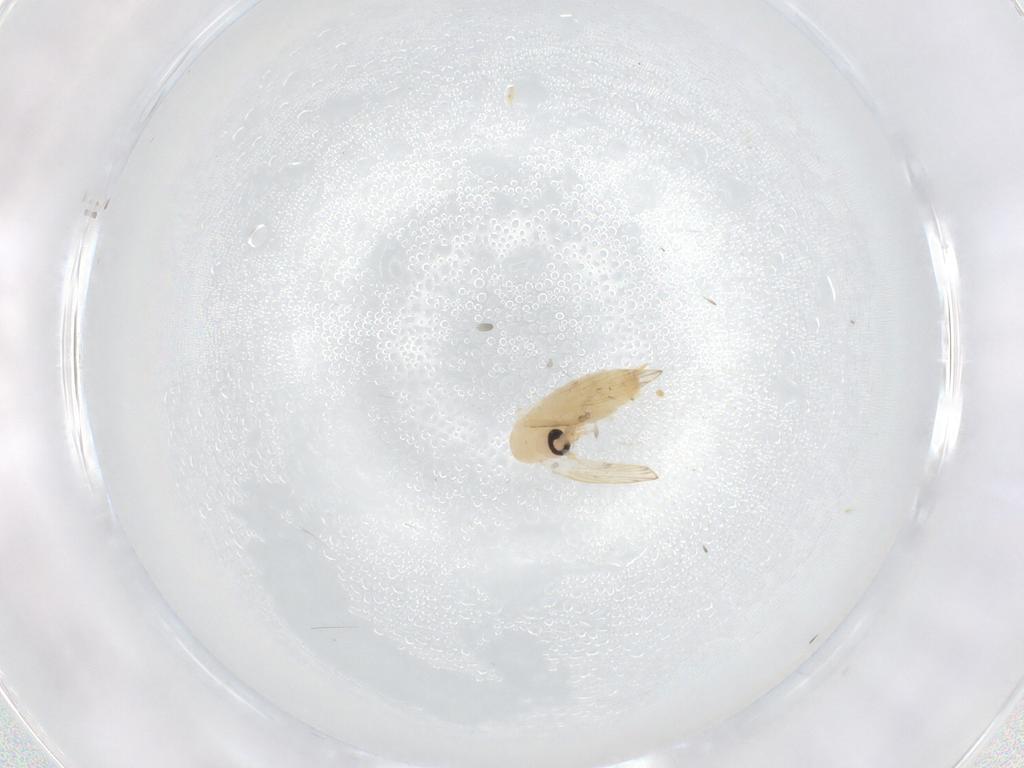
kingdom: Animalia
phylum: Arthropoda
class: Insecta
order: Diptera
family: Psychodidae
